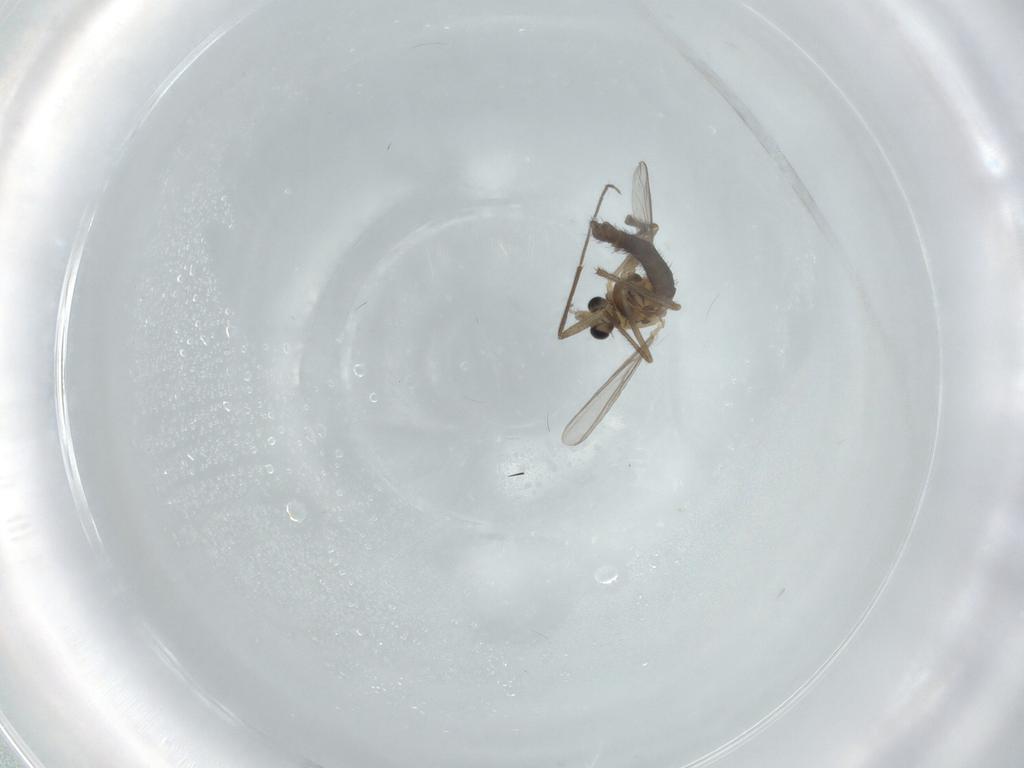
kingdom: Animalia
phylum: Arthropoda
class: Insecta
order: Diptera
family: Chironomidae
